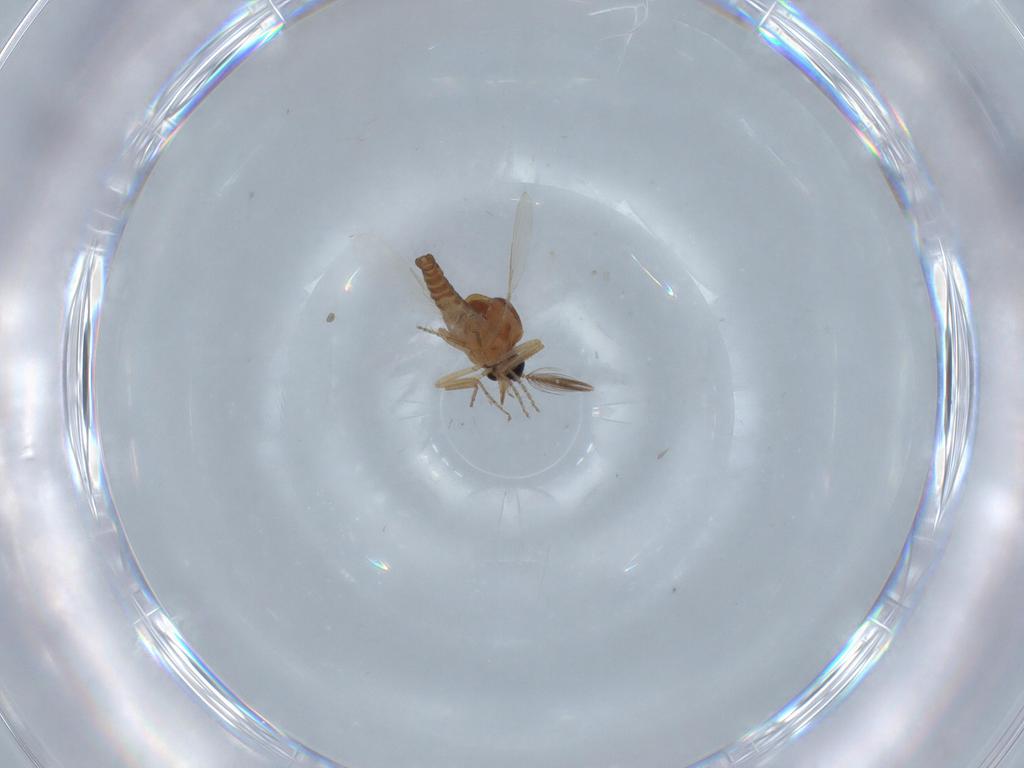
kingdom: Animalia
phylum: Arthropoda
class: Insecta
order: Diptera
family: Ceratopogonidae
